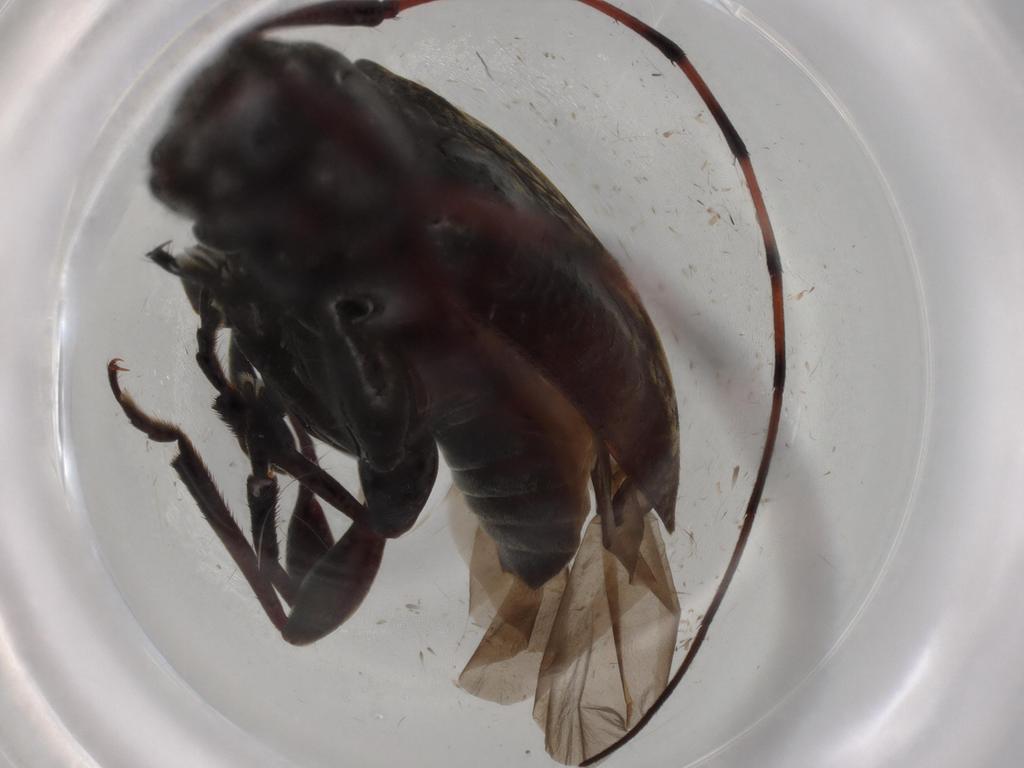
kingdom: Animalia
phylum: Arthropoda
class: Insecta
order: Coleoptera
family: Cerambycidae
